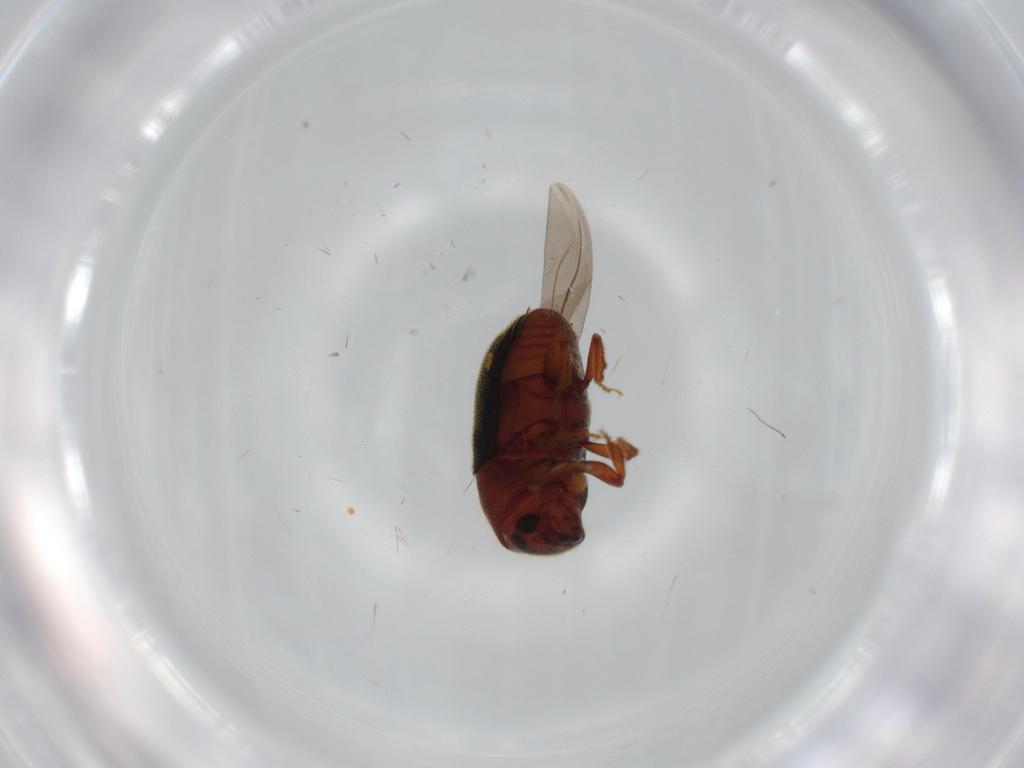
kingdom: Animalia
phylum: Arthropoda
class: Insecta
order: Coleoptera
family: Curculionidae
